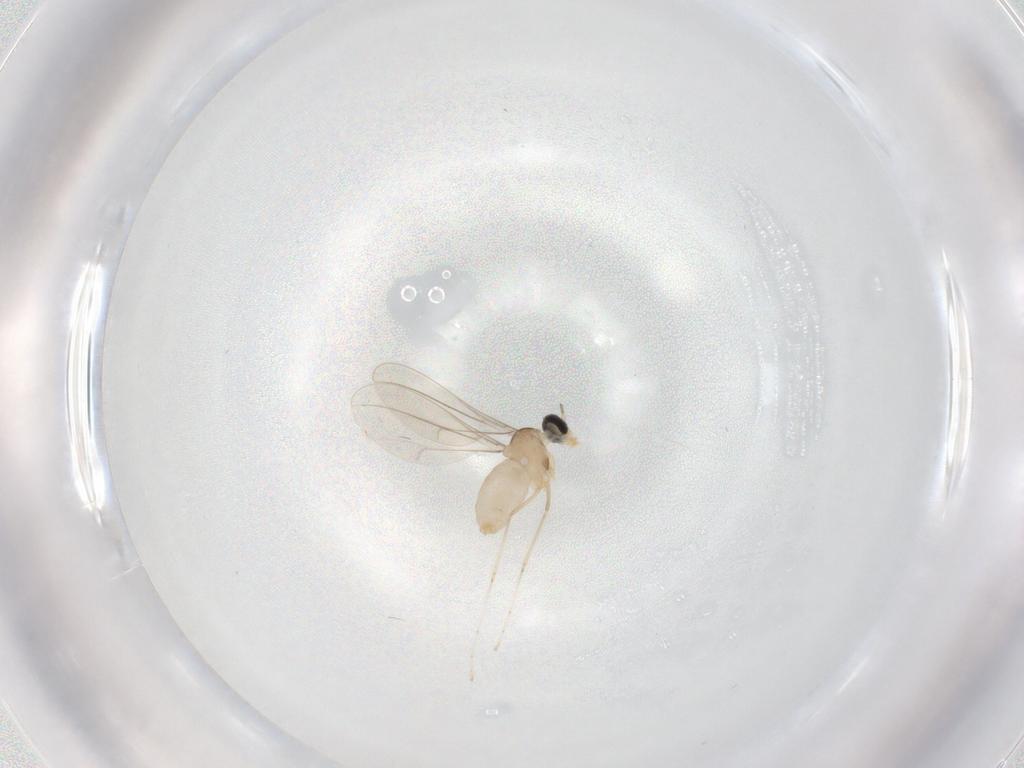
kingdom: Animalia
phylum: Arthropoda
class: Insecta
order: Diptera
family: Cecidomyiidae
